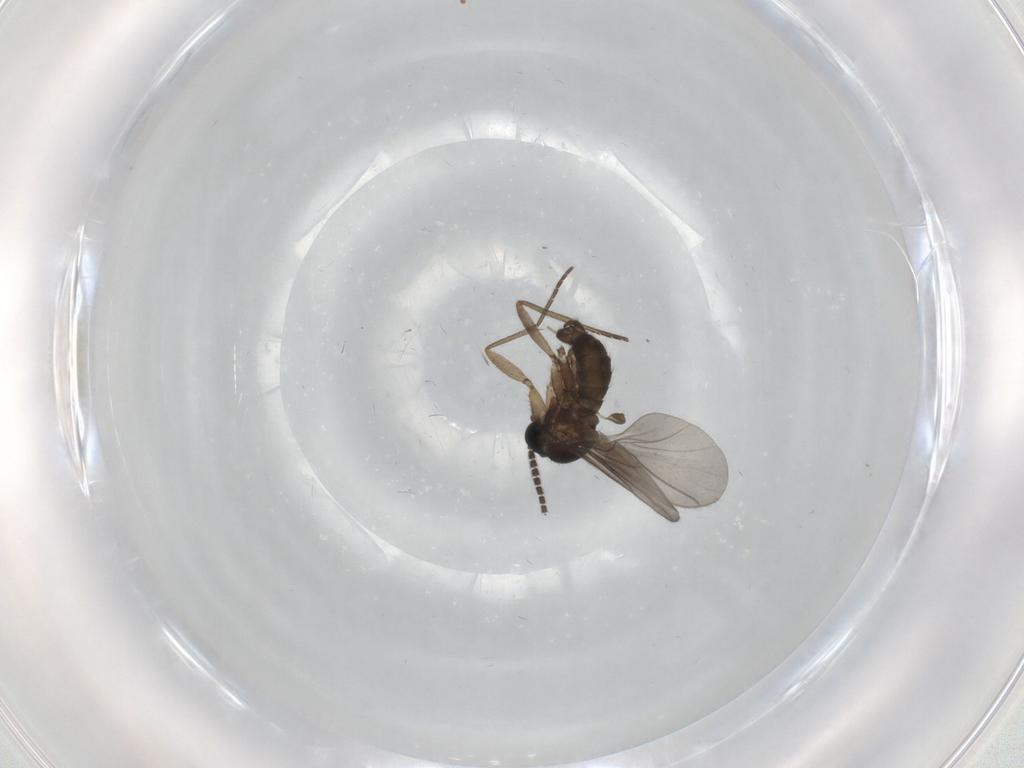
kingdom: Animalia
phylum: Arthropoda
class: Insecta
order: Diptera
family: Sciaridae
